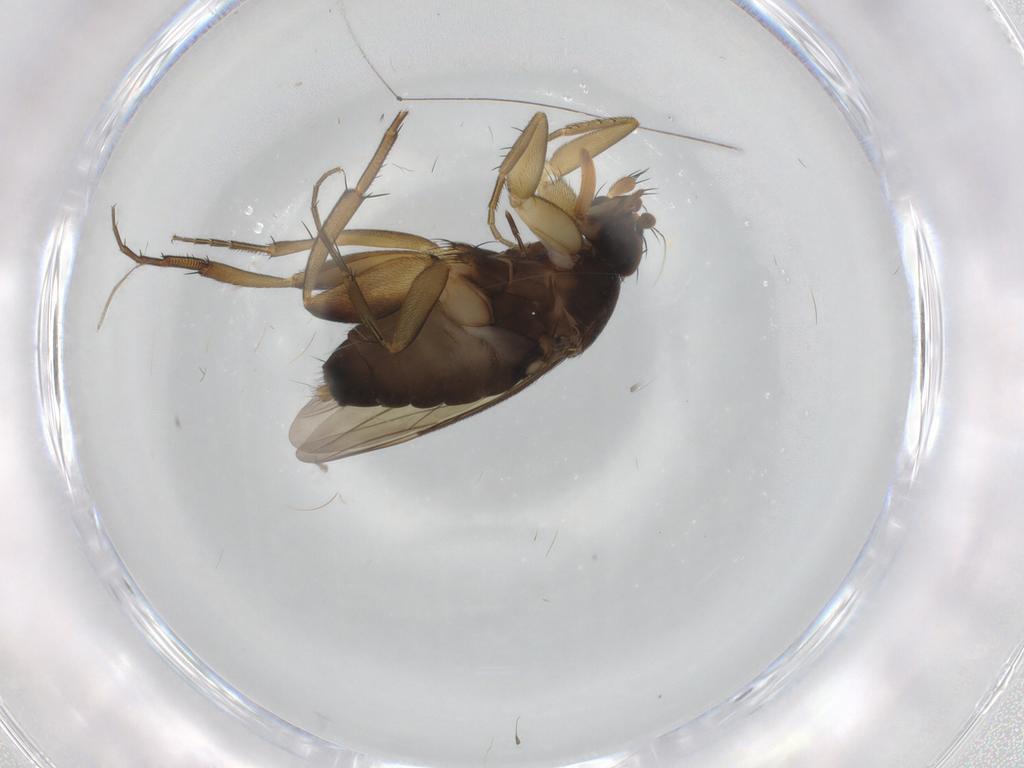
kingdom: Animalia
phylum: Arthropoda
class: Insecta
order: Diptera
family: Phoridae
